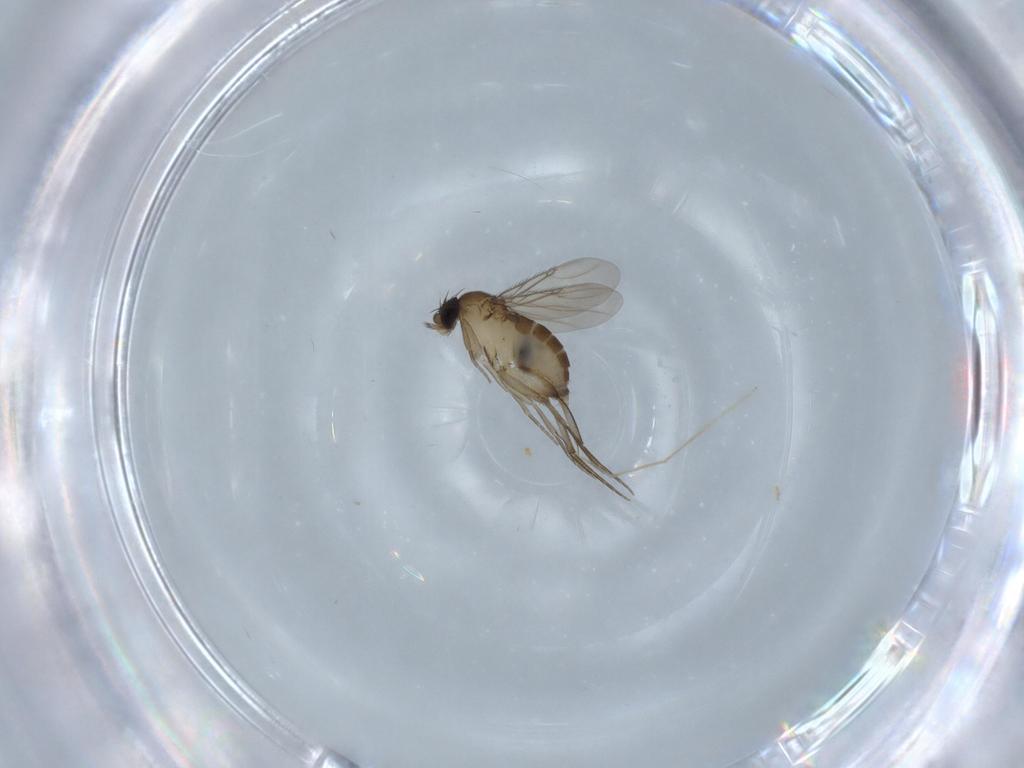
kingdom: Animalia
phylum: Arthropoda
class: Insecta
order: Diptera
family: Phoridae
